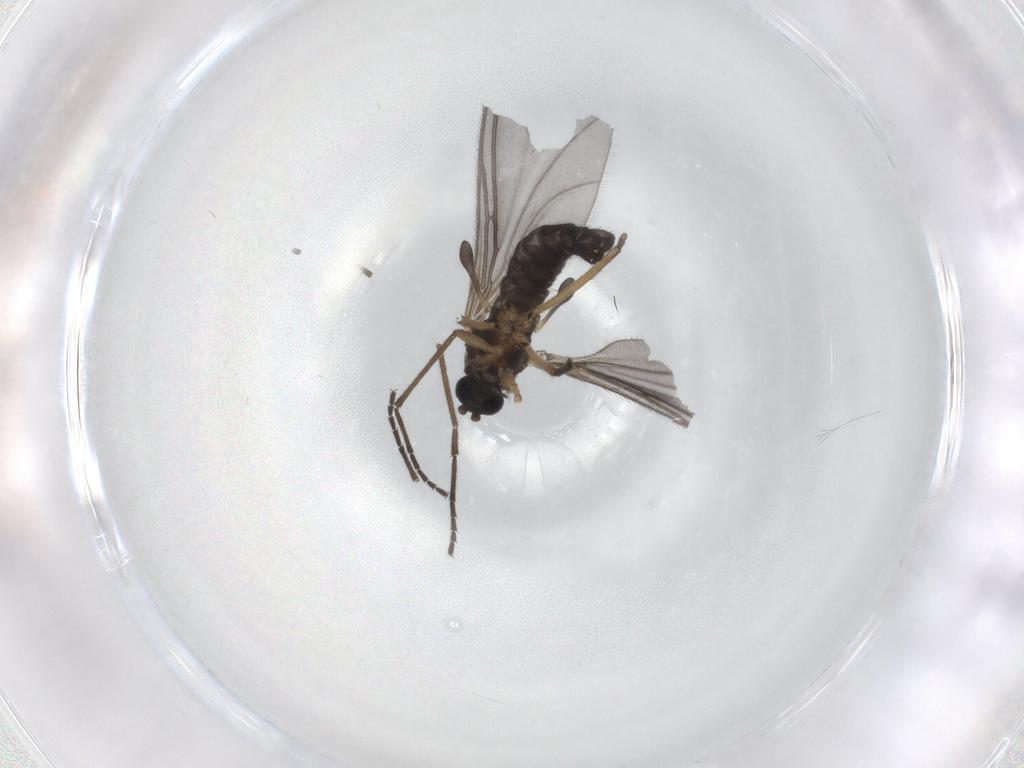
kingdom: Animalia
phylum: Arthropoda
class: Insecta
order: Diptera
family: Sciaridae
